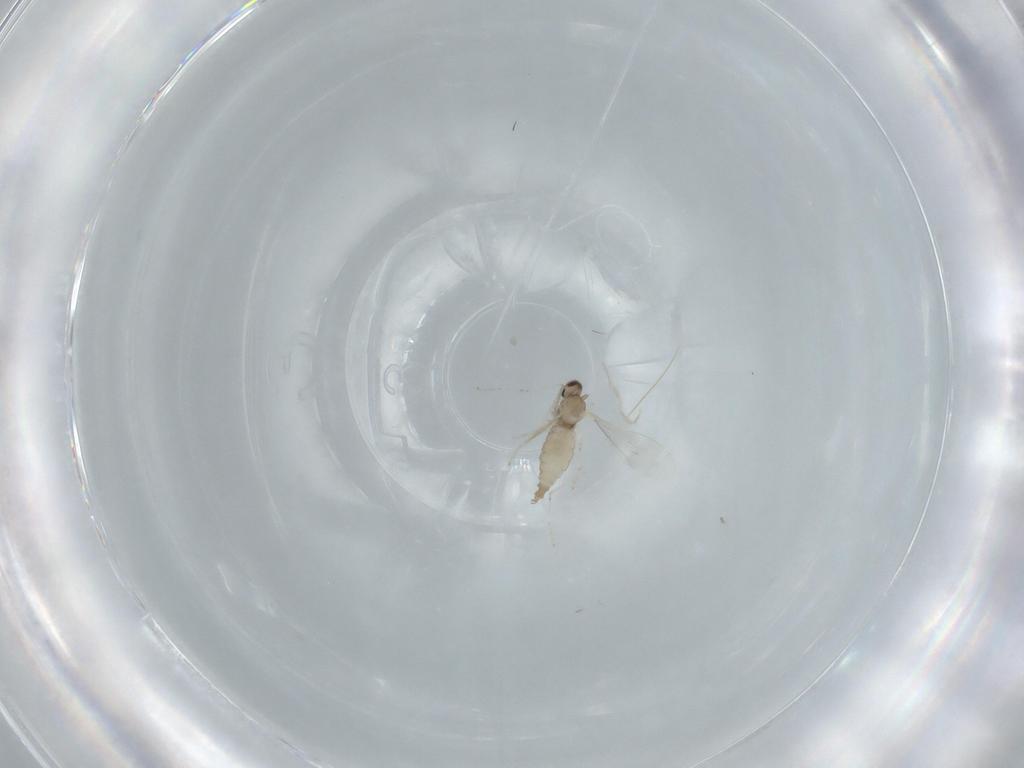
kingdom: Animalia
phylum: Arthropoda
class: Insecta
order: Diptera
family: Cecidomyiidae
